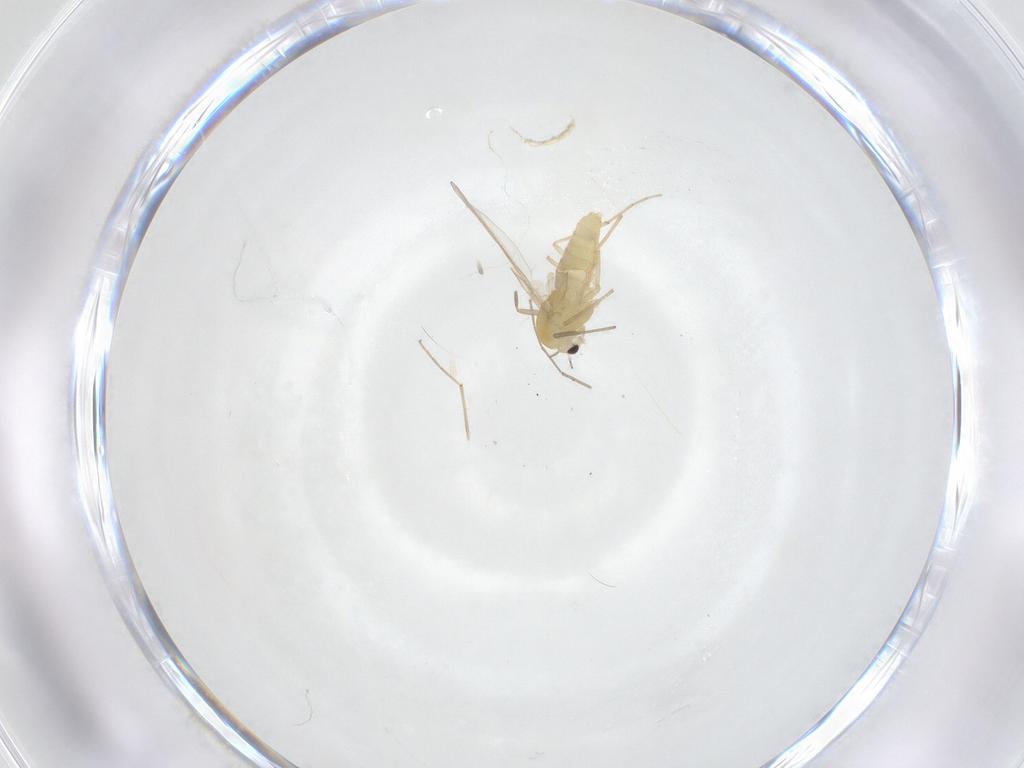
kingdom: Animalia
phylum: Arthropoda
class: Insecta
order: Diptera
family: Chironomidae
